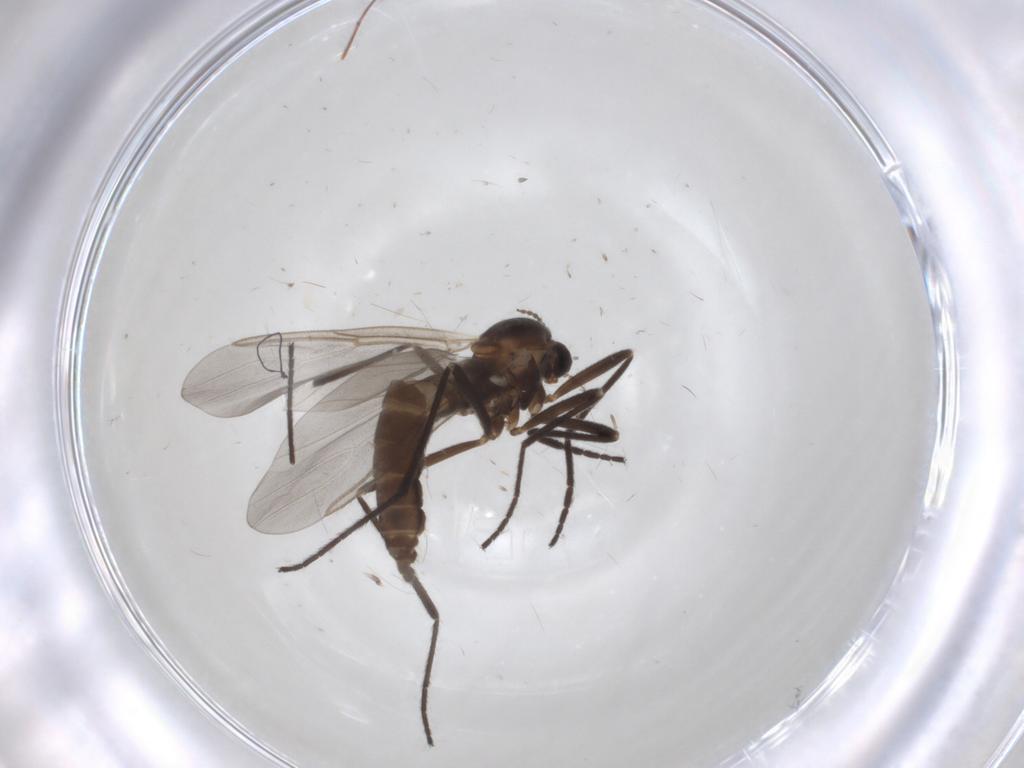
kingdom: Animalia
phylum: Arthropoda
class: Insecta
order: Diptera
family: Cecidomyiidae
